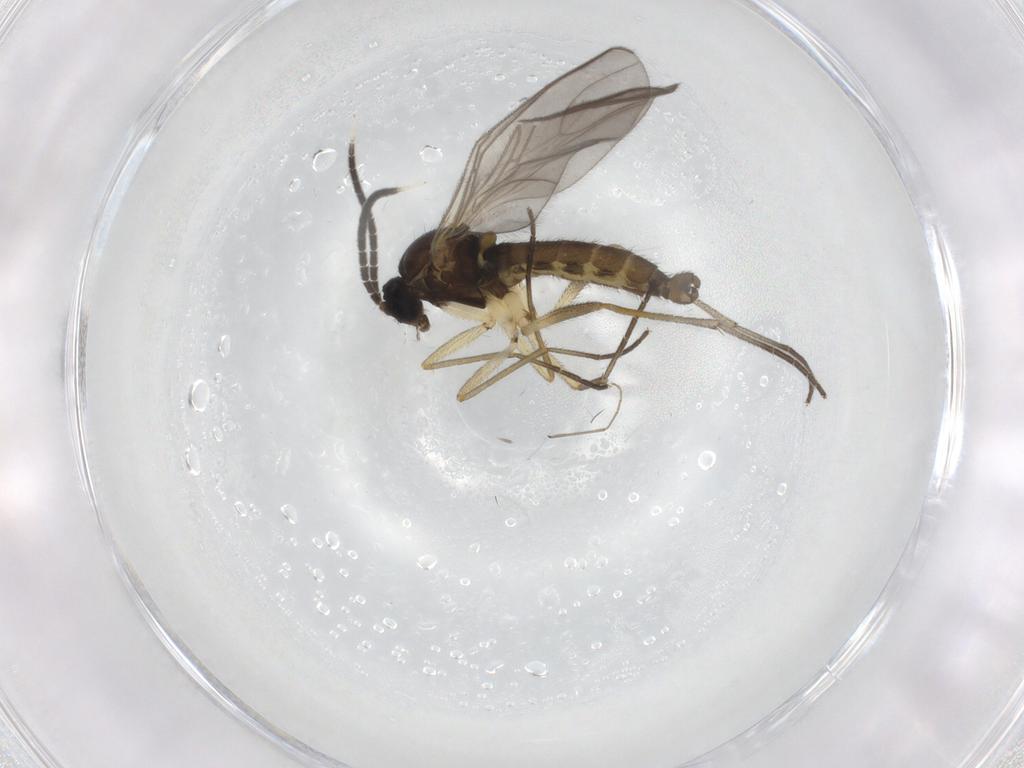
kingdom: Animalia
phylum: Arthropoda
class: Insecta
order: Diptera
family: Sciaridae
